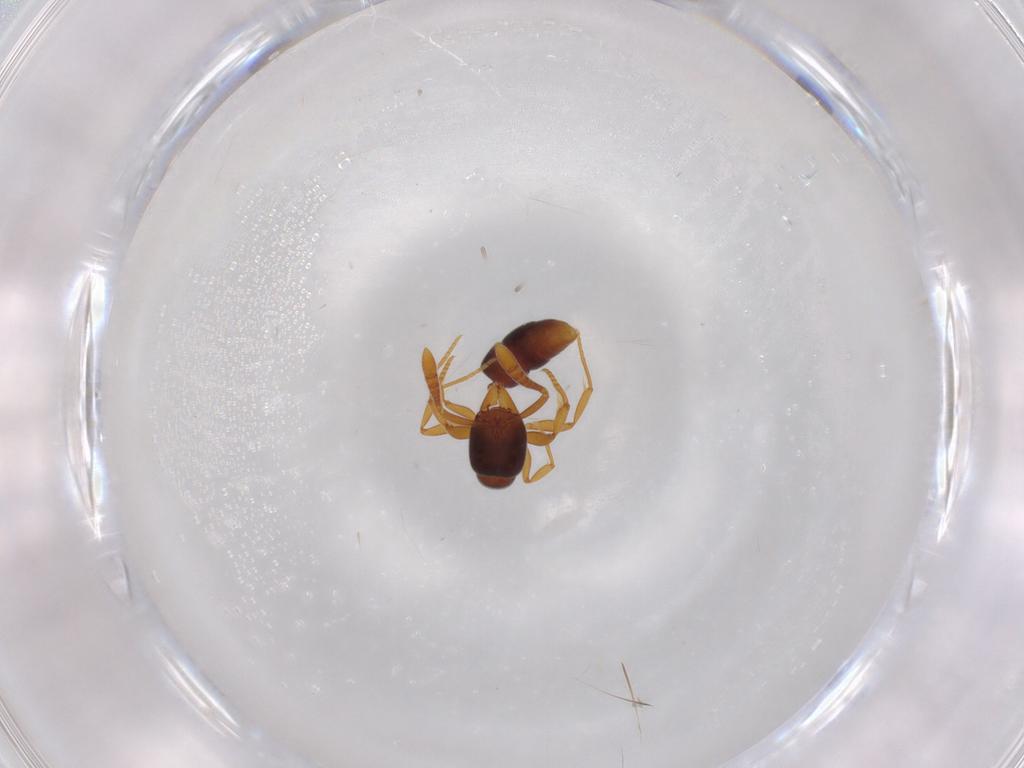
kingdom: Animalia
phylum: Arthropoda
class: Insecta
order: Hymenoptera
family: Formicidae
